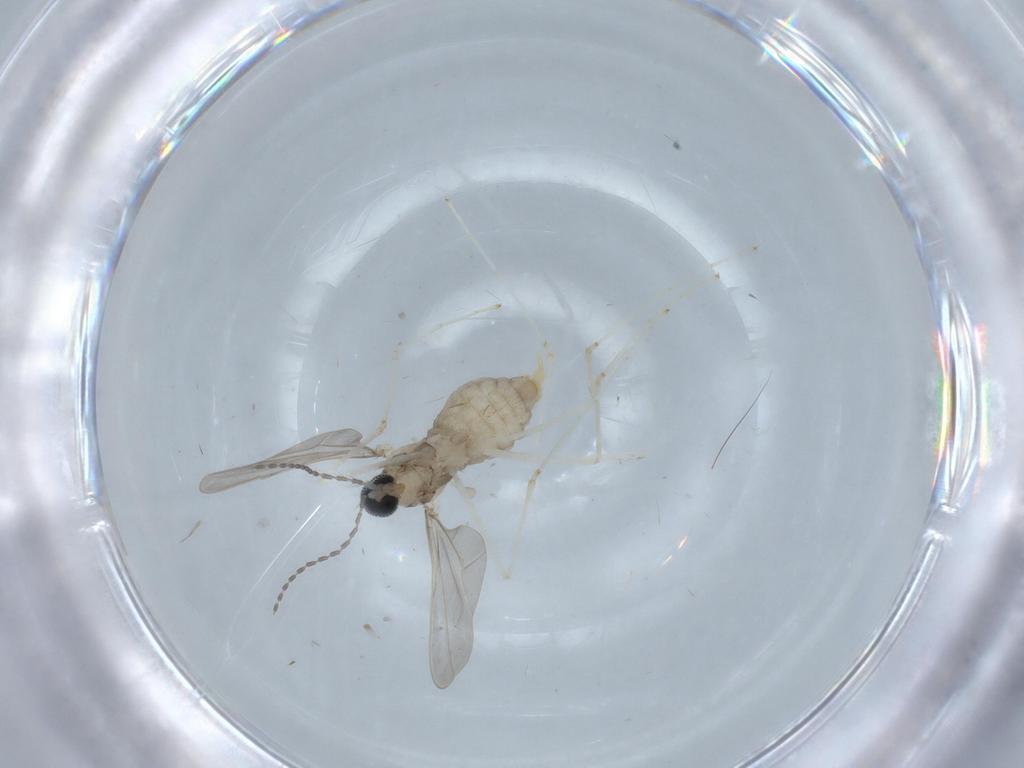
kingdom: Animalia
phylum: Arthropoda
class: Insecta
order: Diptera
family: Cecidomyiidae
